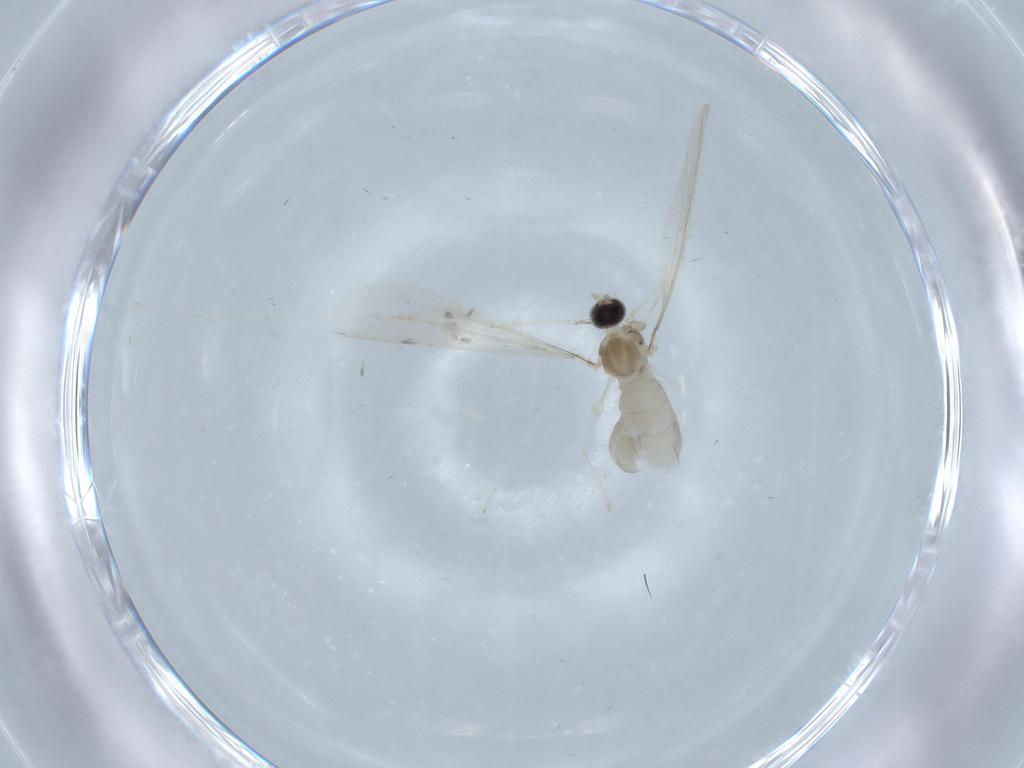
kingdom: Animalia
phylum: Arthropoda
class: Insecta
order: Diptera
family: Cecidomyiidae
